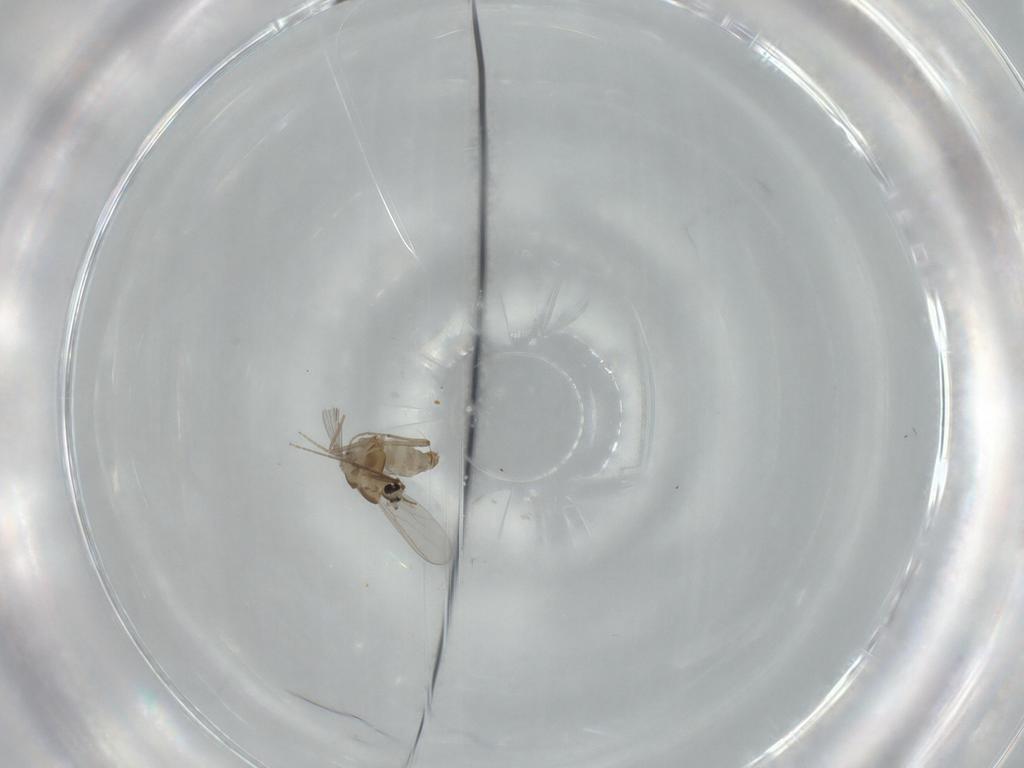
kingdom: Animalia
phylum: Arthropoda
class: Insecta
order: Diptera
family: Chironomidae
